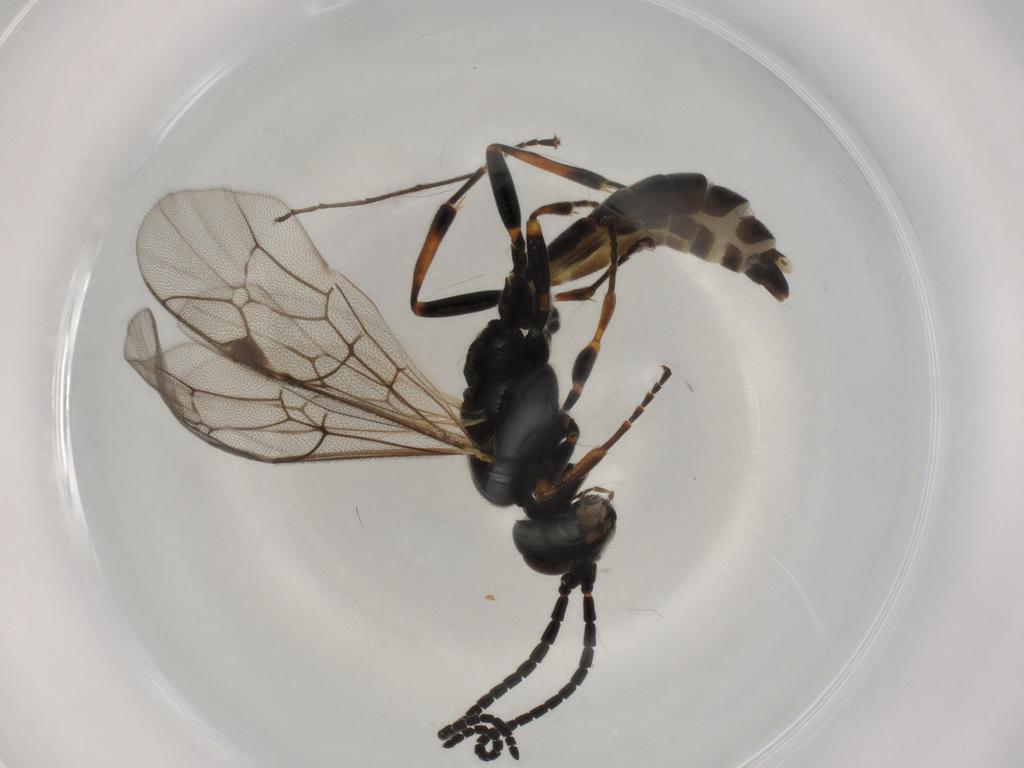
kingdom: Animalia
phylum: Arthropoda
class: Insecta
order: Hymenoptera
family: Ichneumonidae
